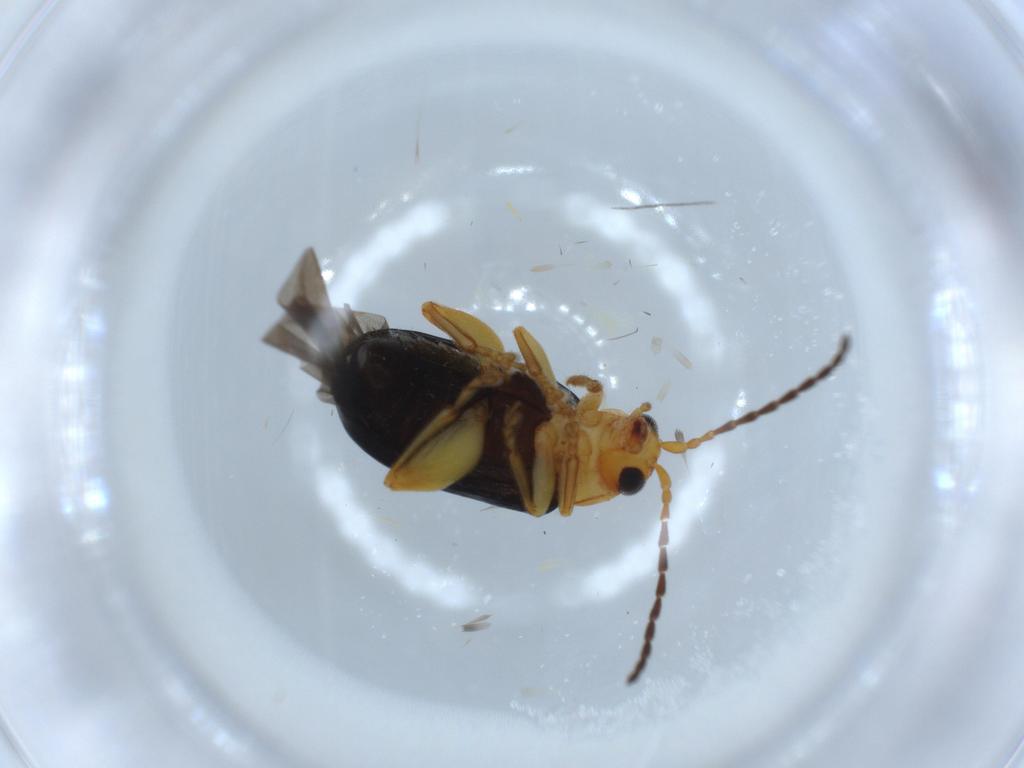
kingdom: Animalia
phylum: Arthropoda
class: Insecta
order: Coleoptera
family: Chrysomelidae
